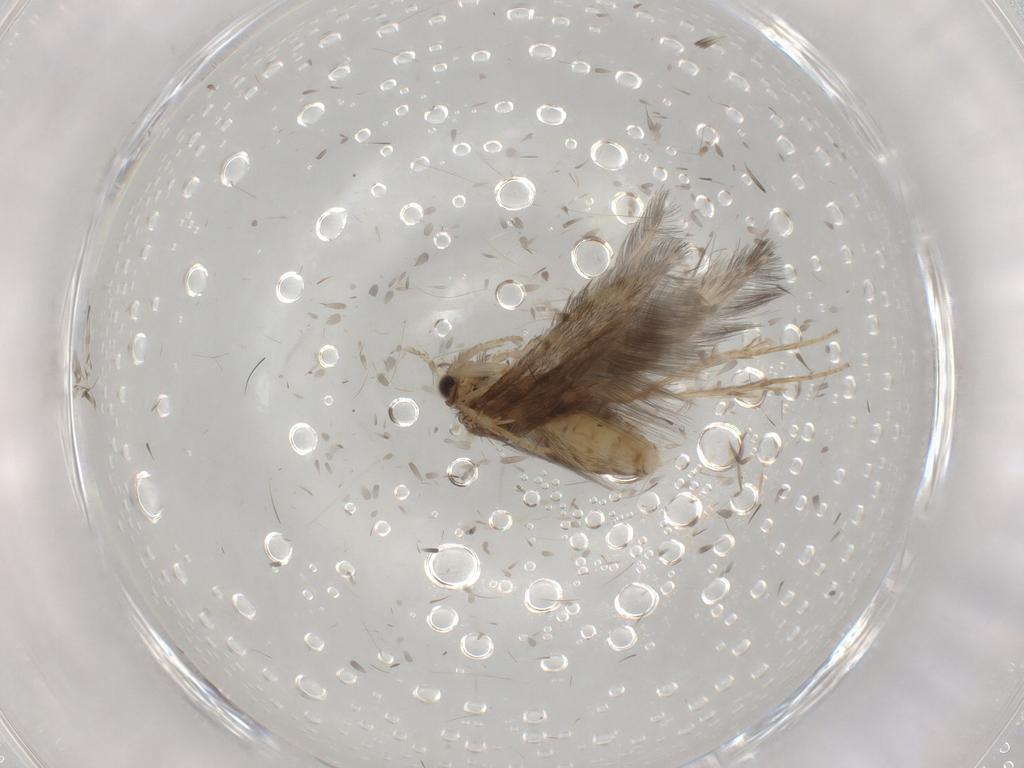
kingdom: Animalia
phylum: Arthropoda
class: Insecta
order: Trichoptera
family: Hydroptilidae
